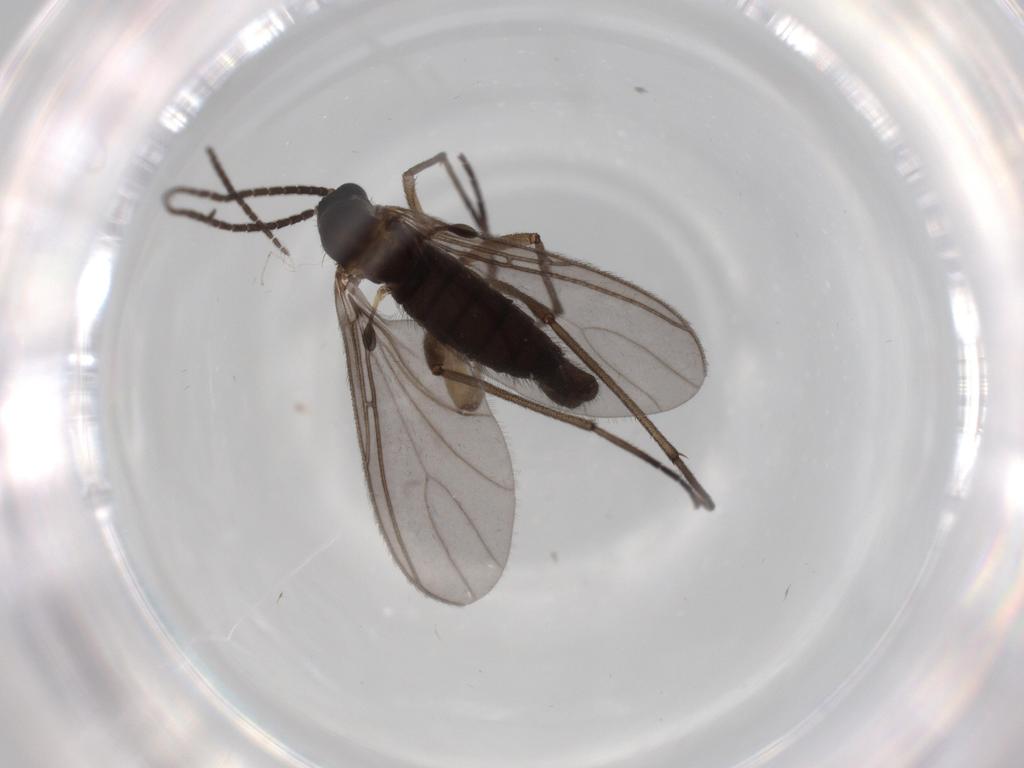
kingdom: Animalia
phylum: Arthropoda
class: Insecta
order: Diptera
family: Sciaridae
